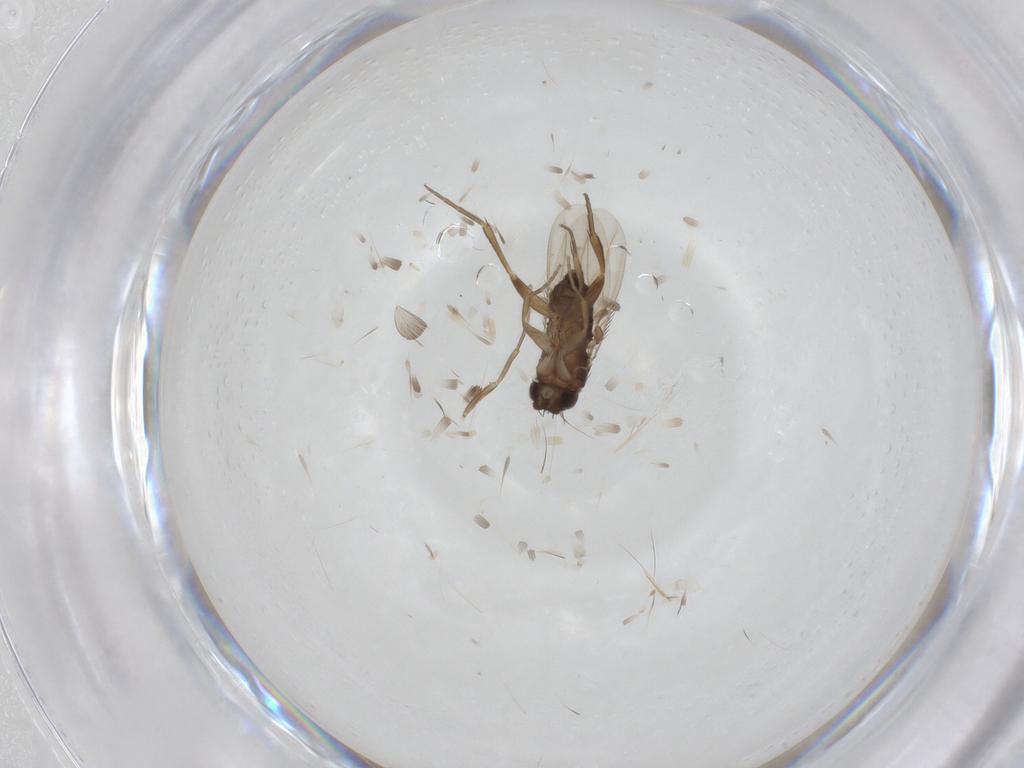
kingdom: Animalia
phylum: Arthropoda
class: Insecta
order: Diptera
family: Phoridae
